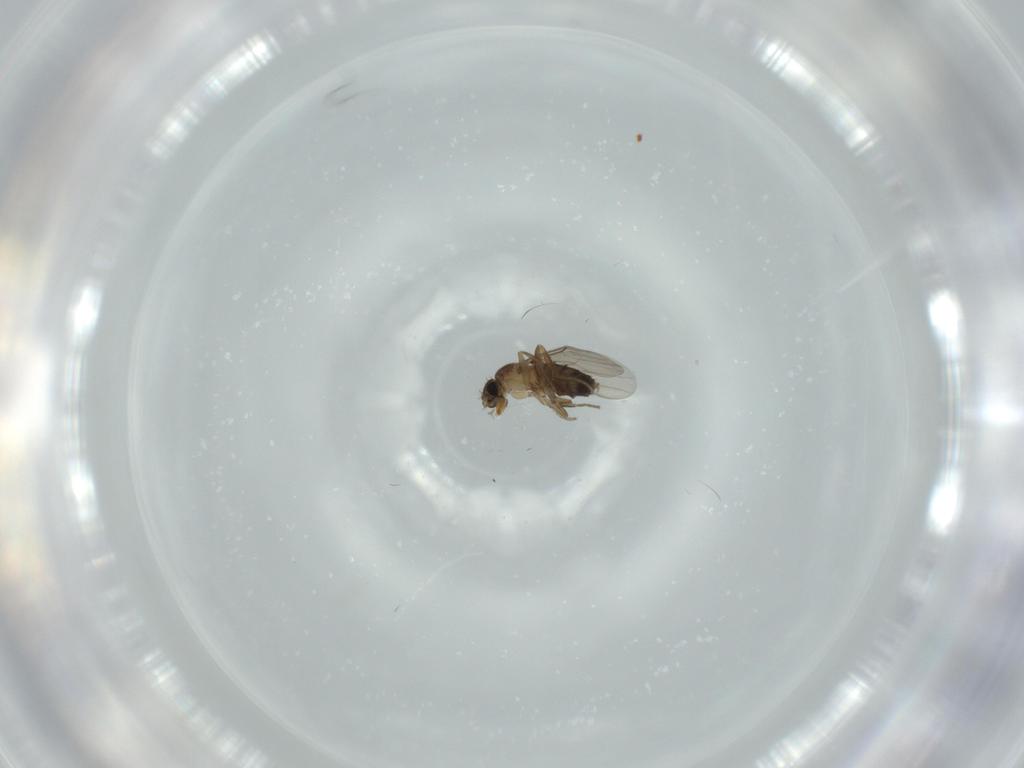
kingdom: Animalia
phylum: Arthropoda
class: Insecta
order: Diptera
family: Phoridae
